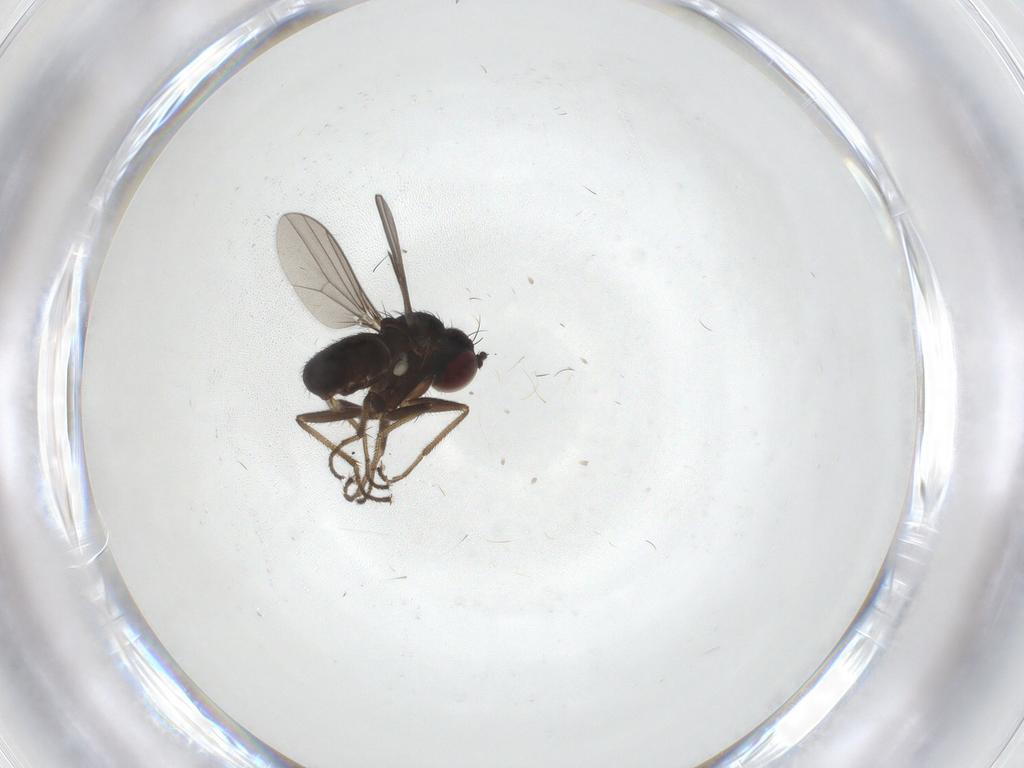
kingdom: Animalia
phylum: Arthropoda
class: Insecta
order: Diptera
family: Dolichopodidae
